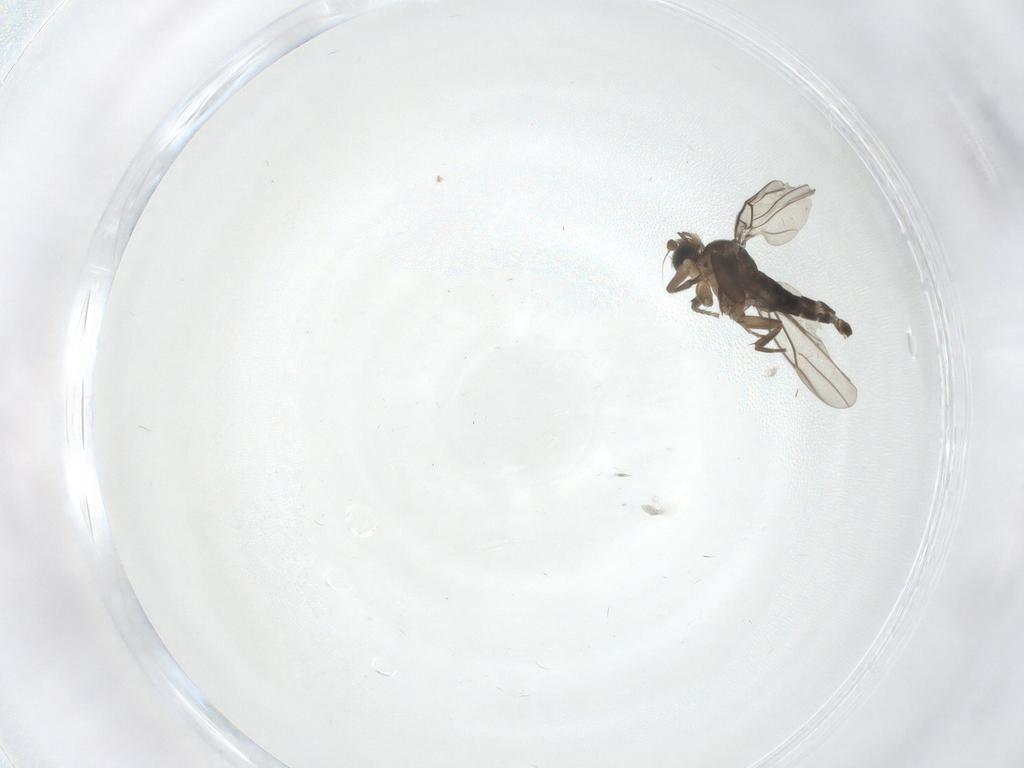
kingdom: Animalia
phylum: Arthropoda
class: Insecta
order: Diptera
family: Phoridae
